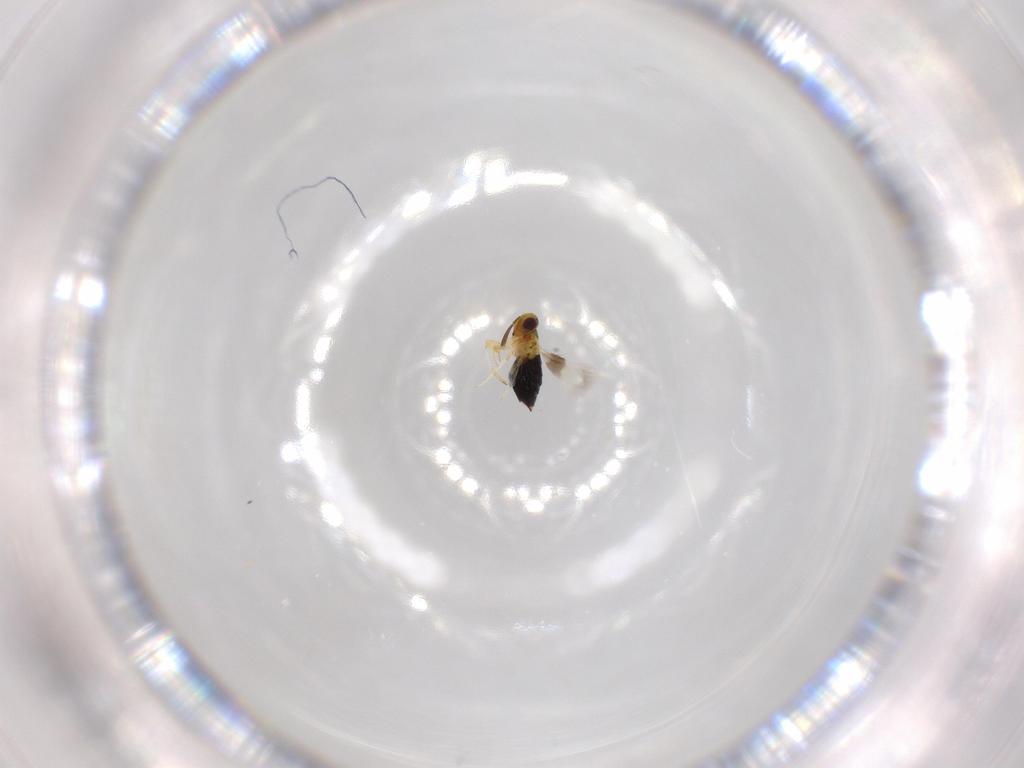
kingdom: Animalia
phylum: Arthropoda
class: Insecta
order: Hymenoptera
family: Signiphoridae
